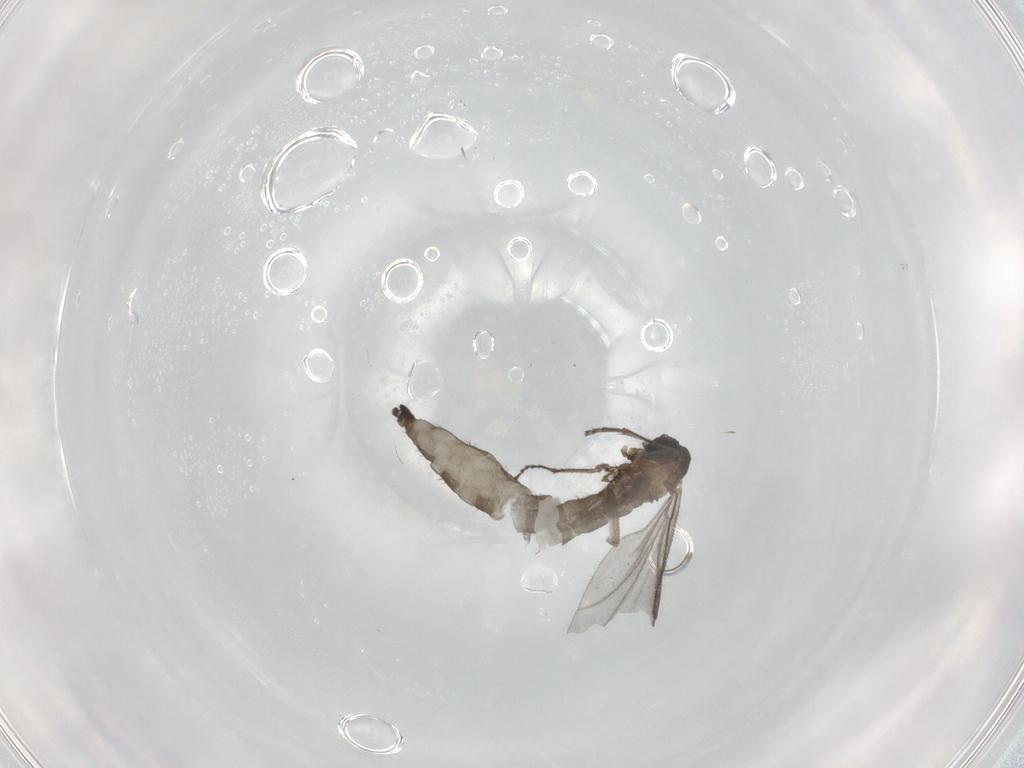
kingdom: Animalia
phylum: Arthropoda
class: Insecta
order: Diptera
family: Sciaridae
